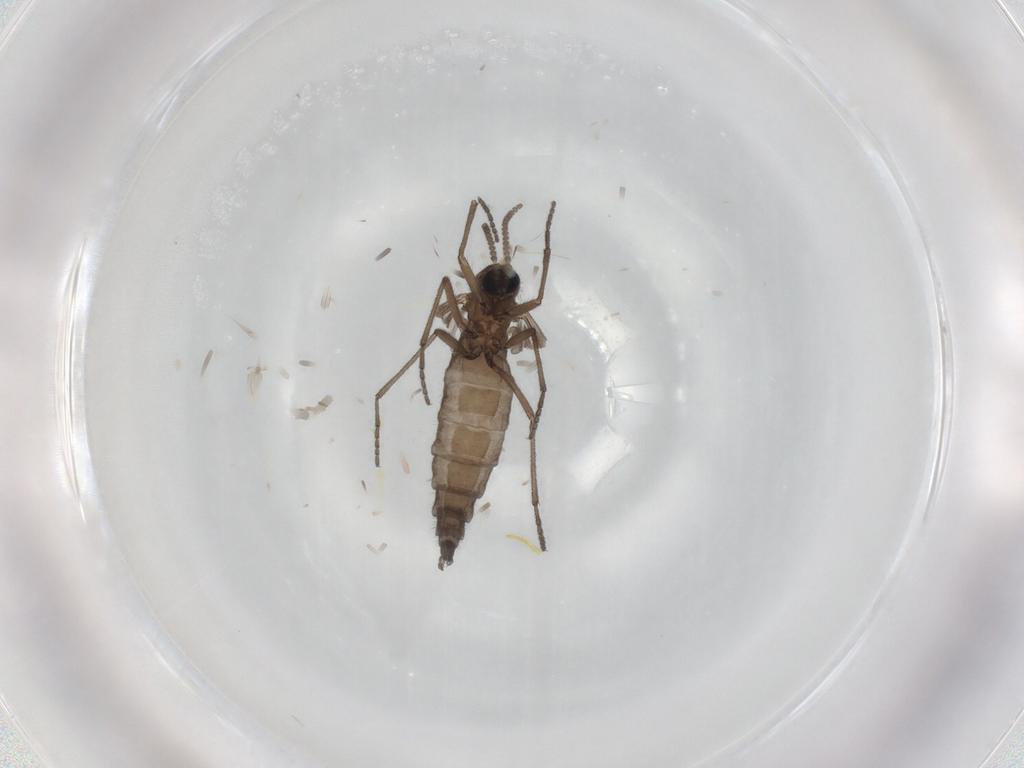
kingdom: Animalia
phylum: Arthropoda
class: Insecta
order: Diptera
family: Sciaridae
